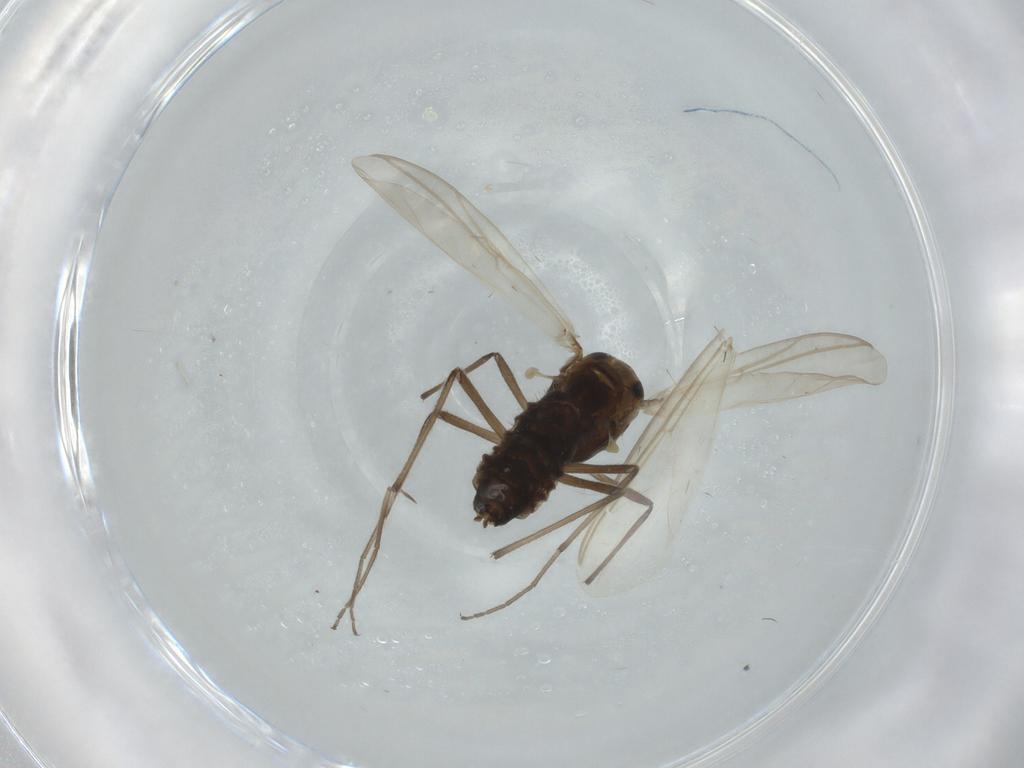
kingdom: Animalia
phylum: Arthropoda
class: Insecta
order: Diptera
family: Chironomidae
